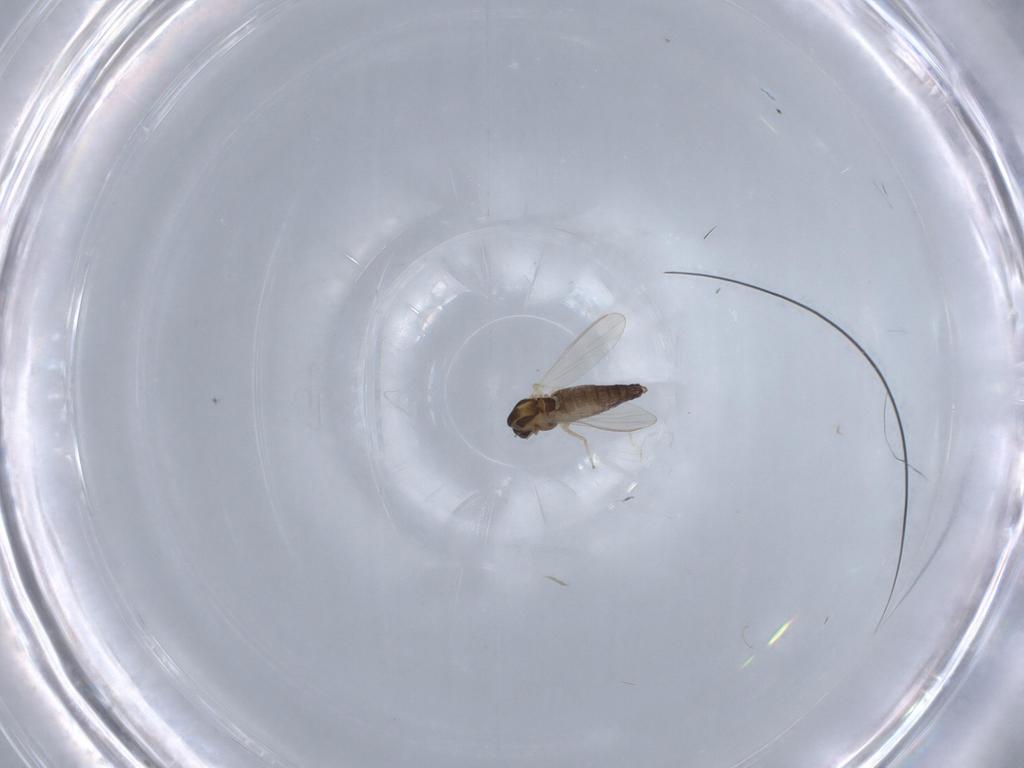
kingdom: Animalia
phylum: Arthropoda
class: Insecta
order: Diptera
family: Chironomidae
